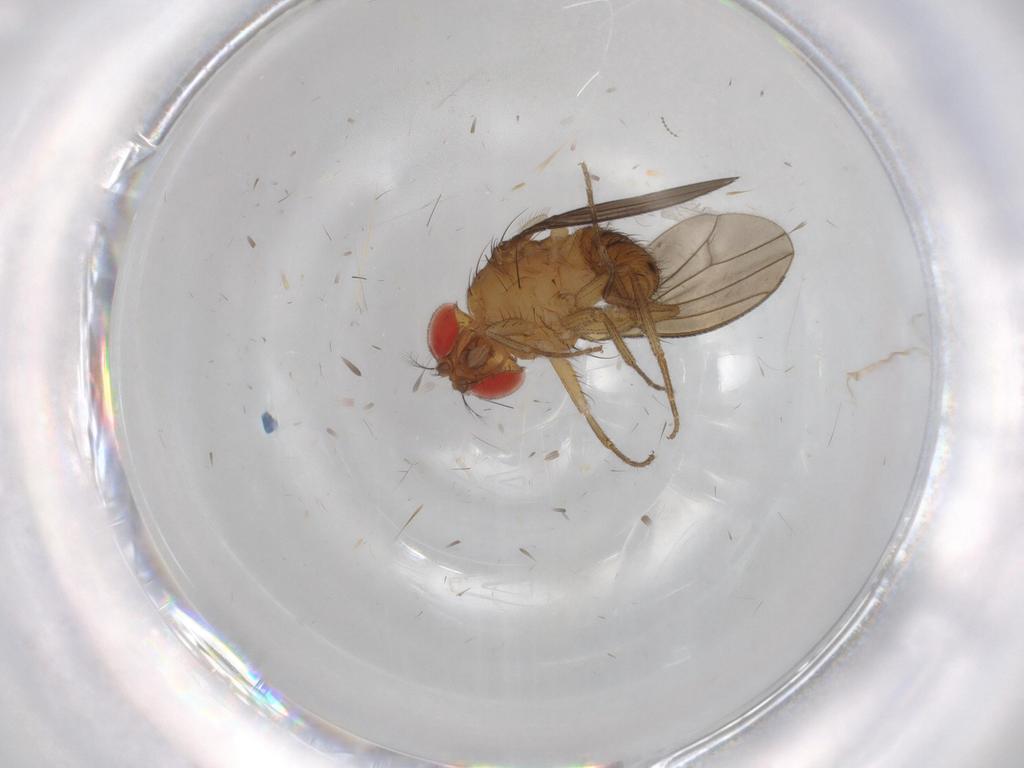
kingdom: Animalia
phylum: Arthropoda
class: Insecta
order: Diptera
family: Drosophilidae
